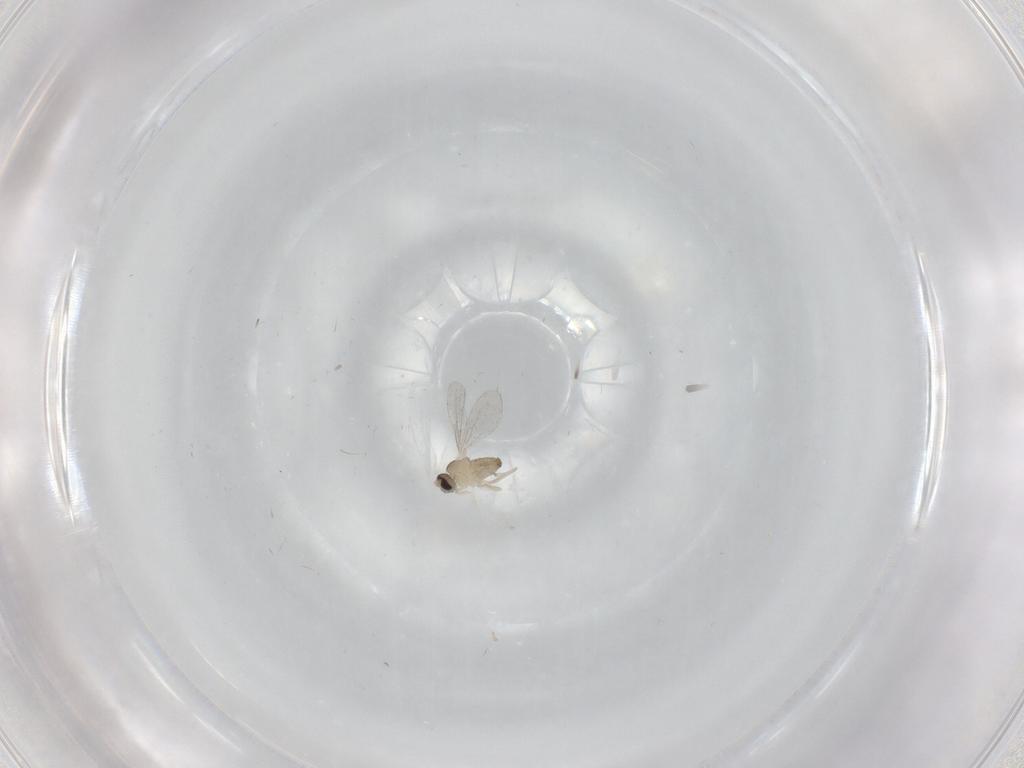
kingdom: Animalia
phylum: Arthropoda
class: Insecta
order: Diptera
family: Cecidomyiidae
